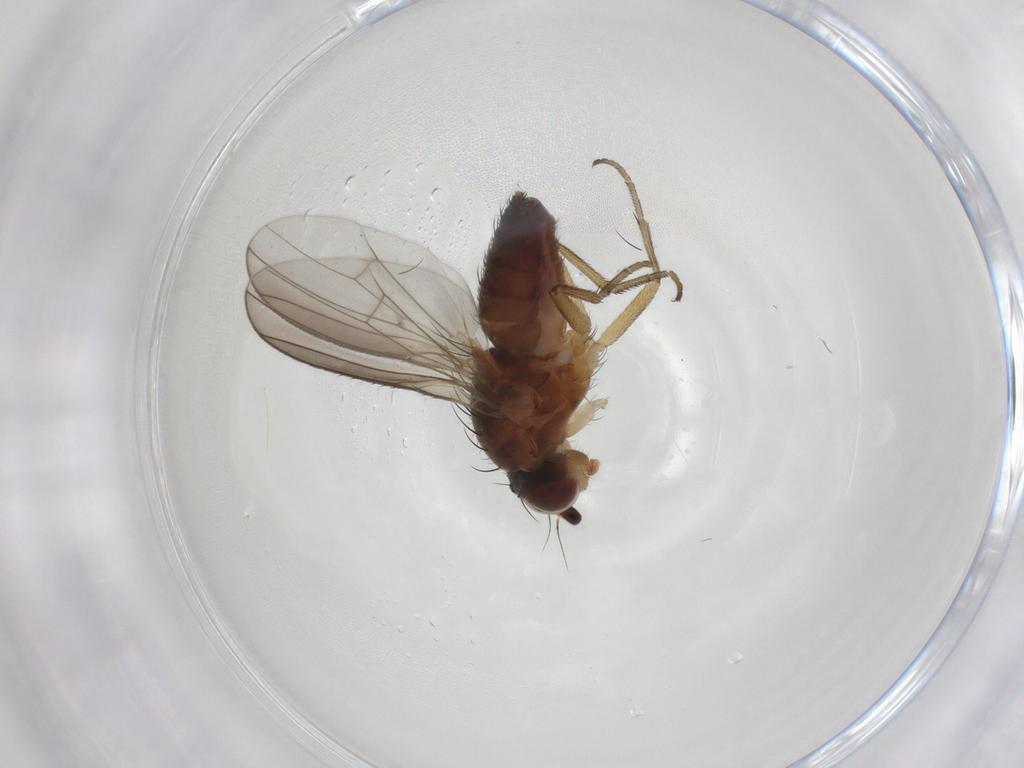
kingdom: Animalia
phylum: Arthropoda
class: Insecta
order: Diptera
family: Heleomyzidae
